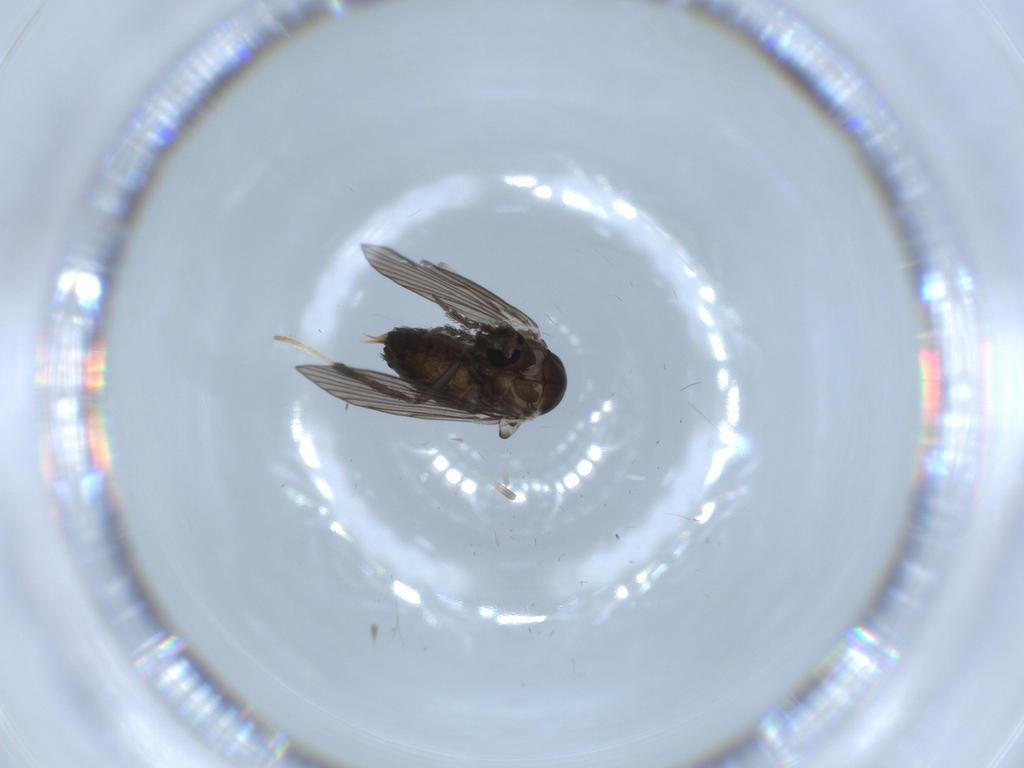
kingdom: Animalia
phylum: Arthropoda
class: Insecta
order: Diptera
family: Psychodidae
